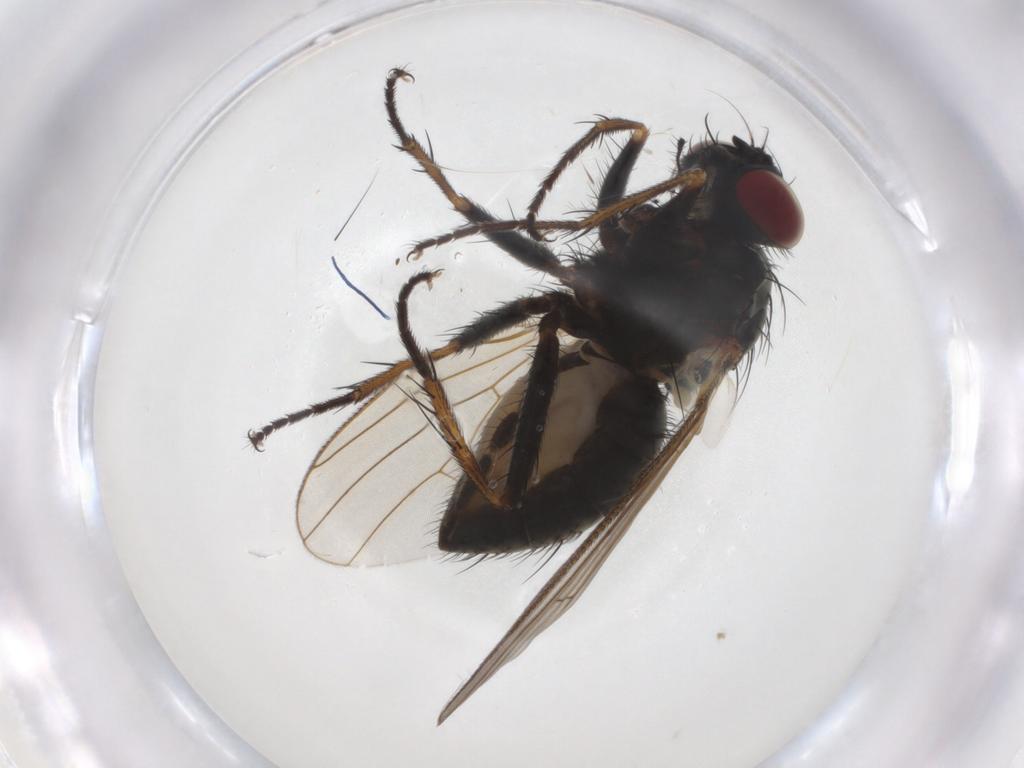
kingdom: Animalia
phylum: Arthropoda
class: Insecta
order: Diptera
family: Muscidae
